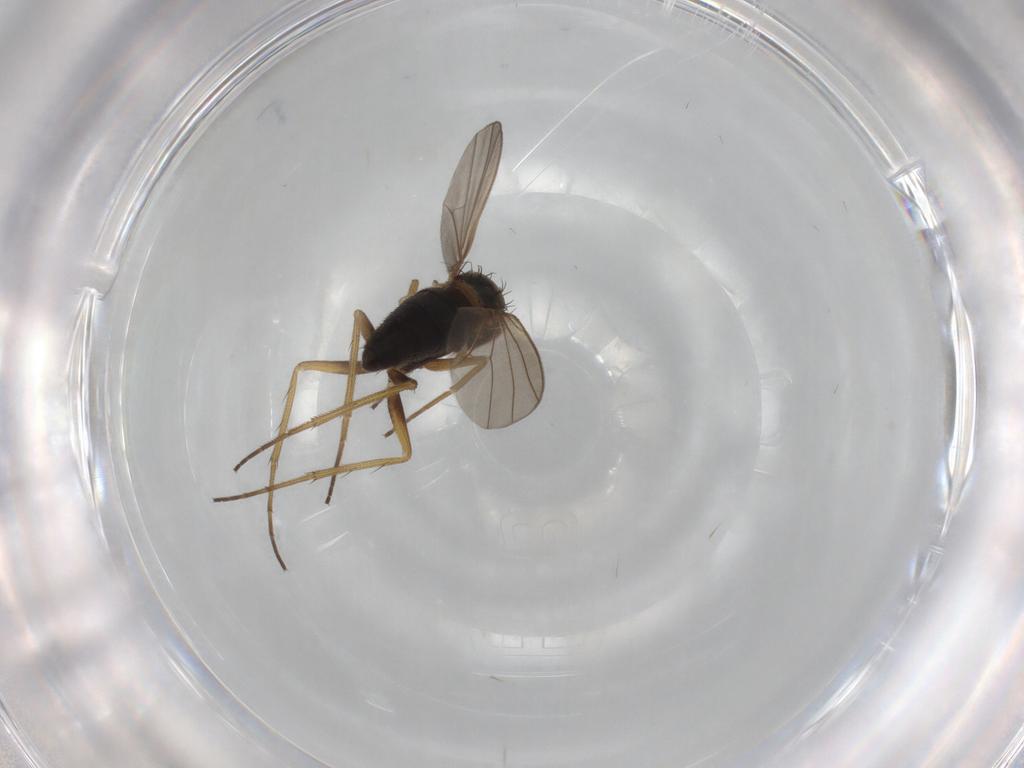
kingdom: Animalia
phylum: Arthropoda
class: Insecta
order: Diptera
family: Cecidomyiidae
